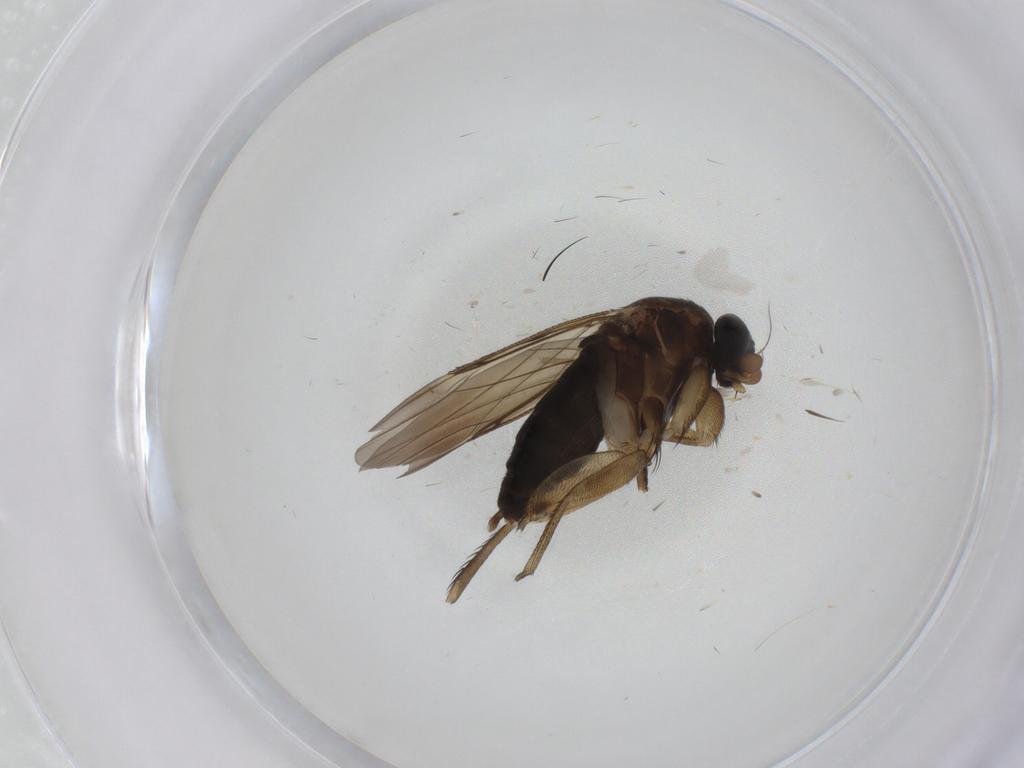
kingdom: Animalia
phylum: Arthropoda
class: Insecta
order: Diptera
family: Phoridae
